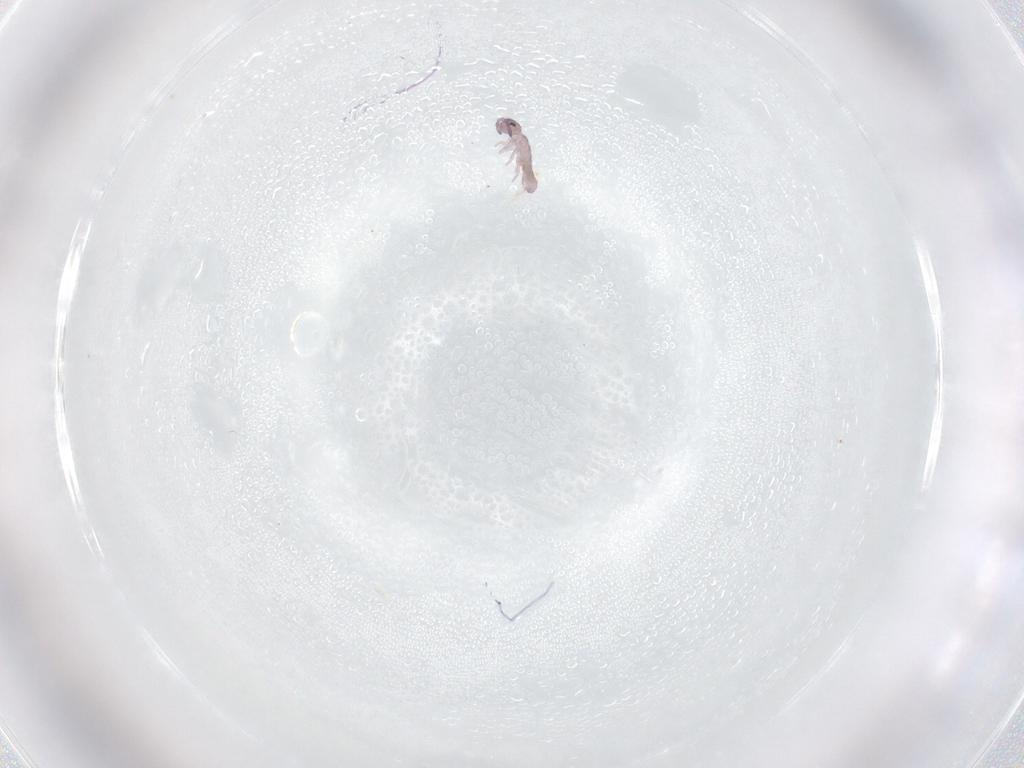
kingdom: Animalia
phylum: Arthropoda
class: Collembola
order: Entomobryomorpha
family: Isotomidae
